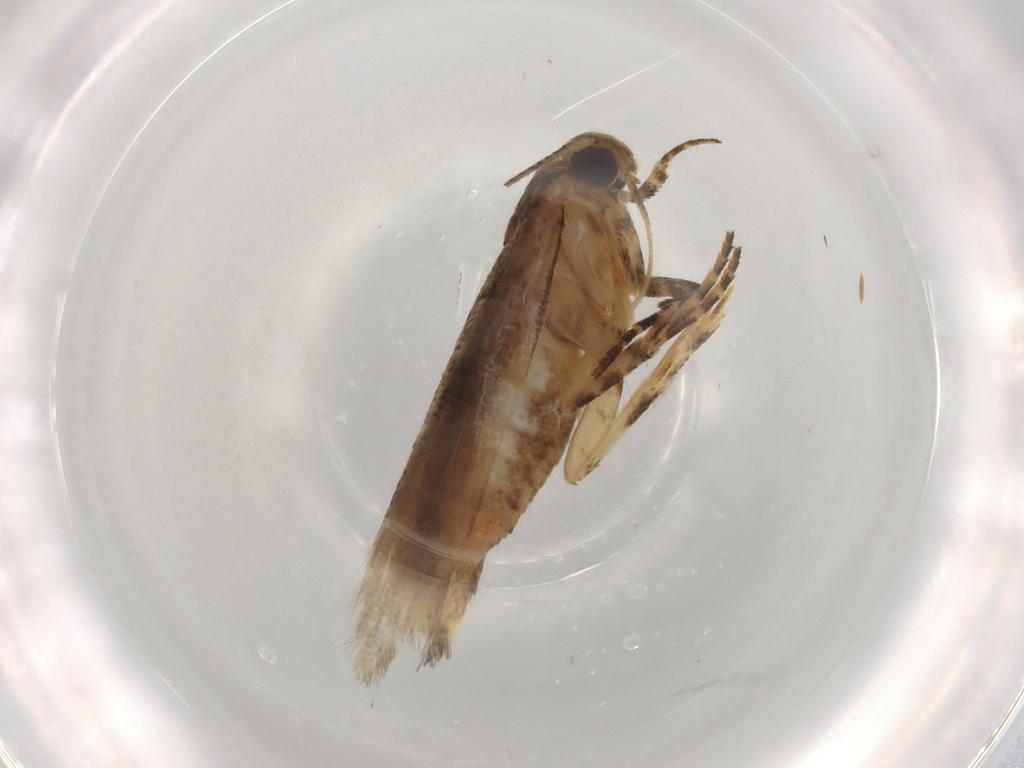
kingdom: Animalia
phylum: Arthropoda
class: Insecta
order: Lepidoptera
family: Gelechiidae
